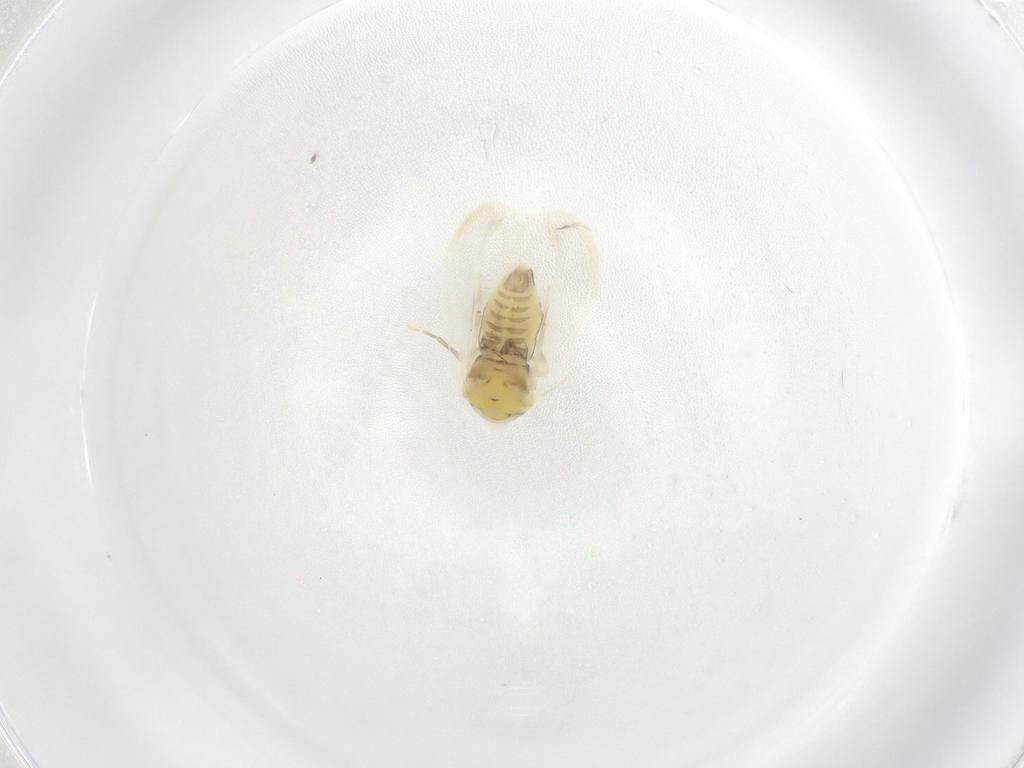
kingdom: Animalia
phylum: Arthropoda
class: Insecta
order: Hemiptera
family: Aleyrodidae
